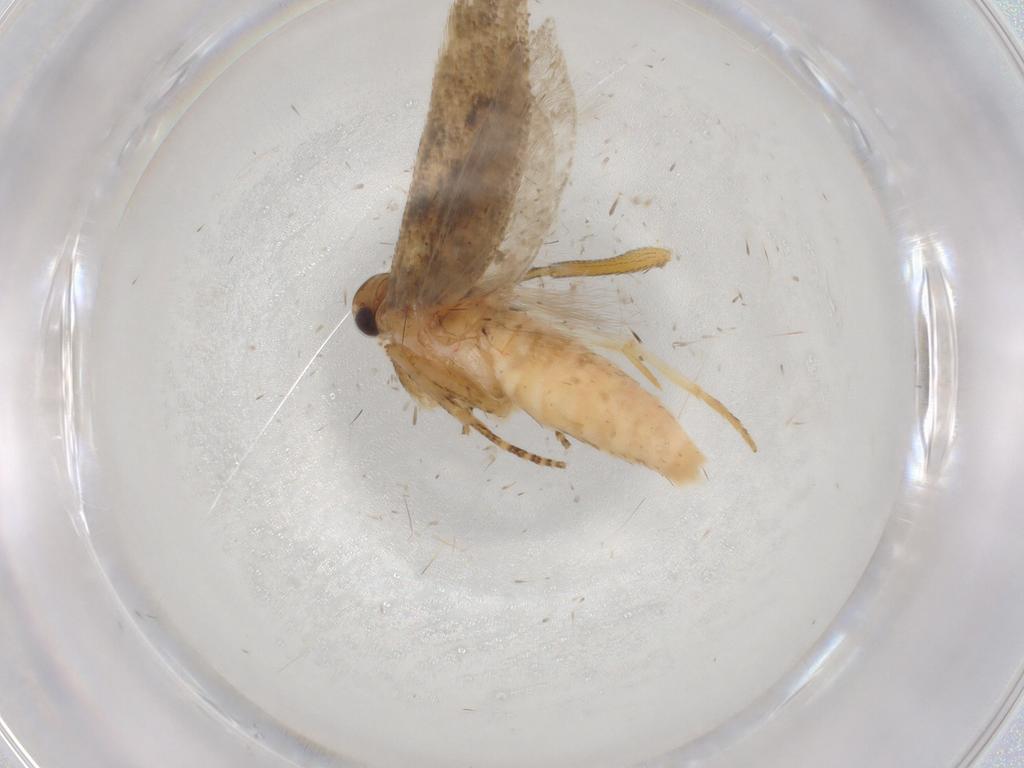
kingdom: Animalia
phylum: Arthropoda
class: Insecta
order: Lepidoptera
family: Gelechiidae
